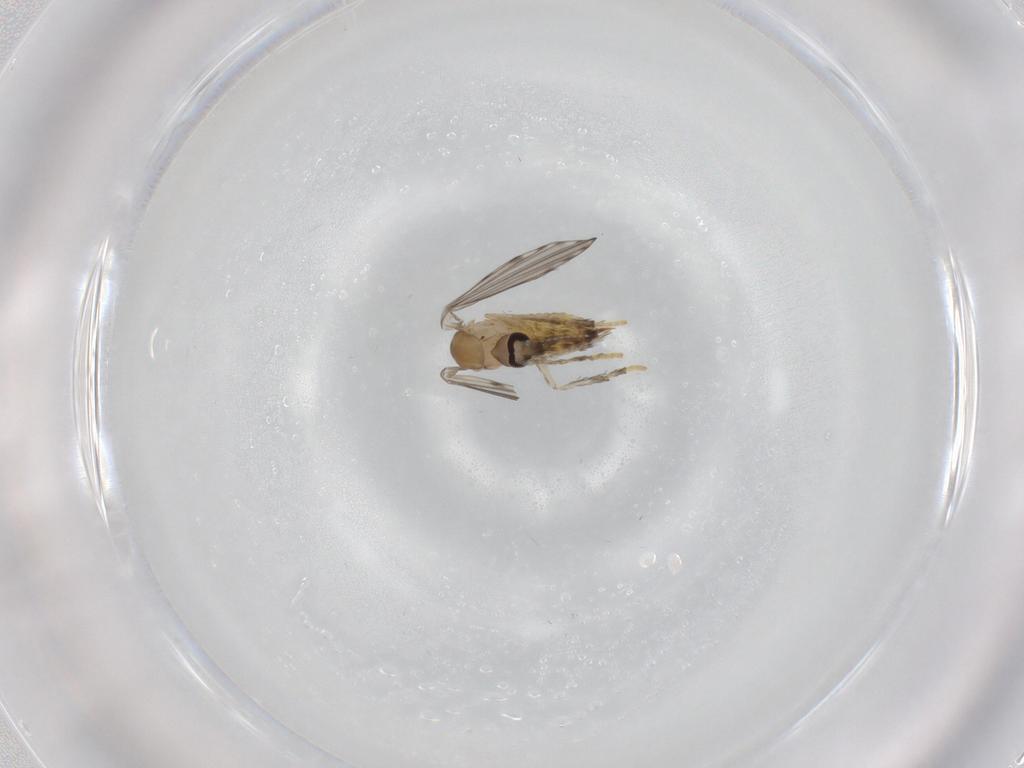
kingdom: Animalia
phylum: Arthropoda
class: Insecta
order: Diptera
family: Psychodidae
